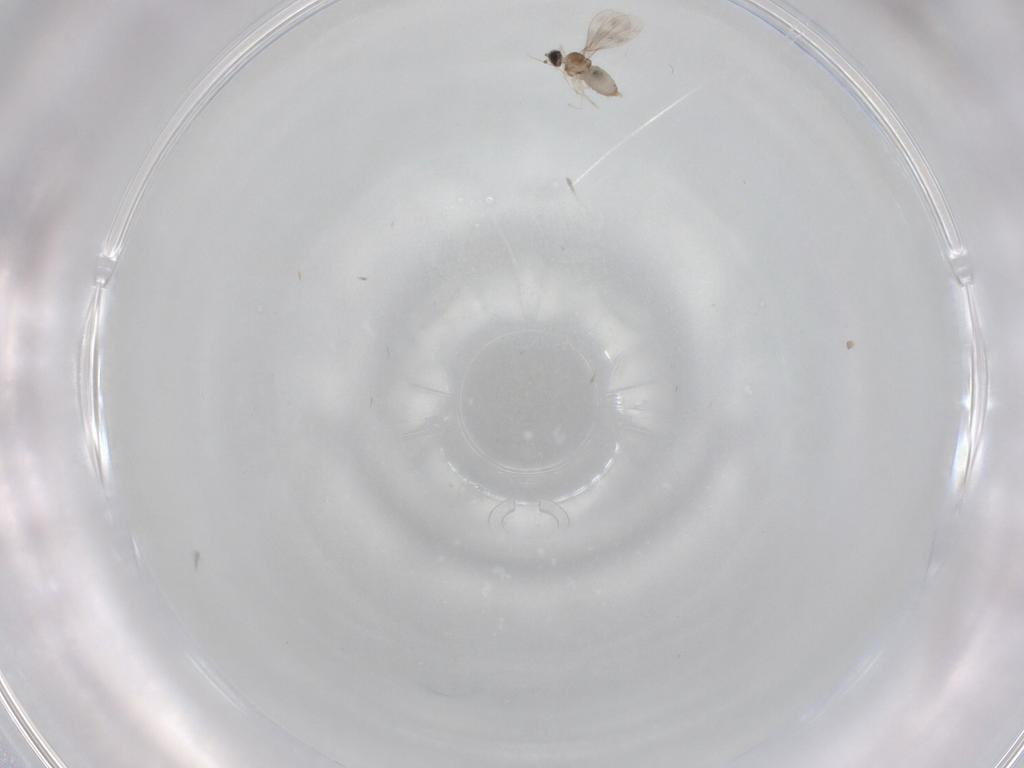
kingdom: Animalia
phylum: Arthropoda
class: Insecta
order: Diptera
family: Cecidomyiidae
